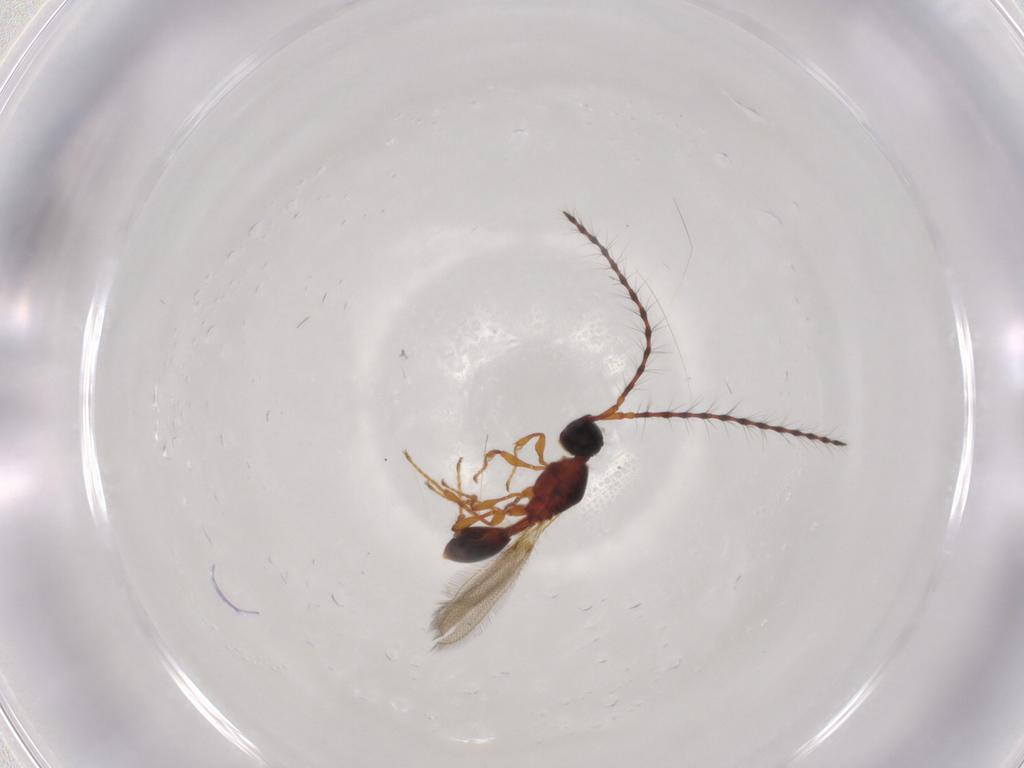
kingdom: Animalia
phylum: Arthropoda
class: Insecta
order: Hymenoptera
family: Diapriidae
